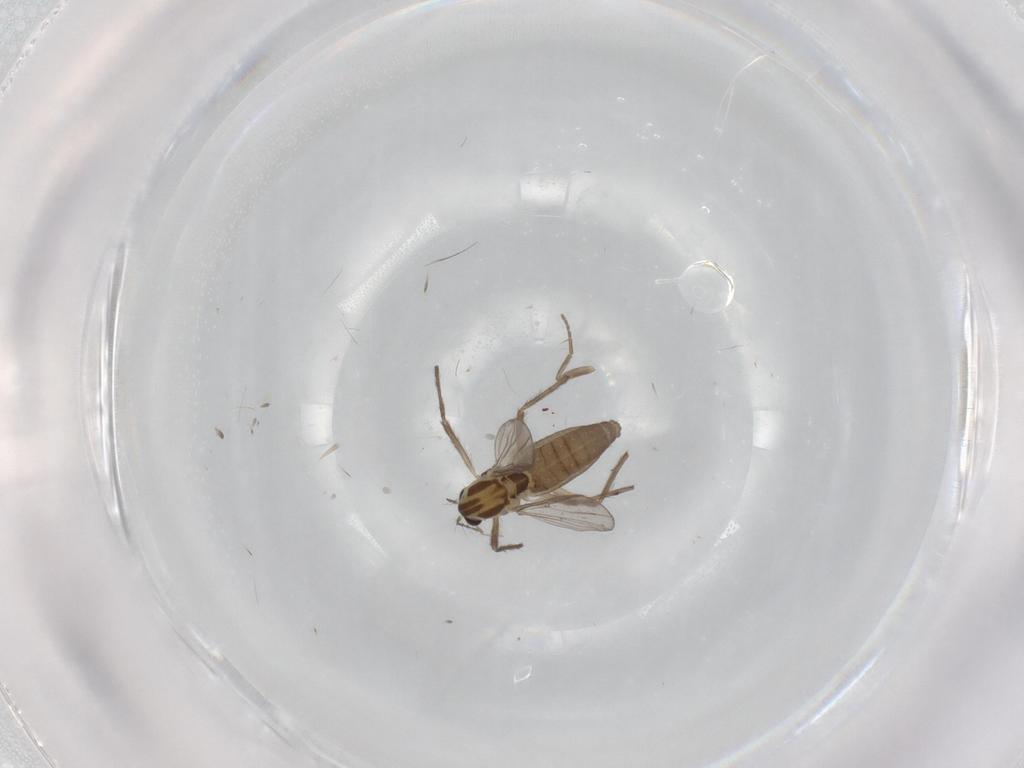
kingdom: Animalia
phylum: Arthropoda
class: Insecta
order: Diptera
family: Chironomidae
